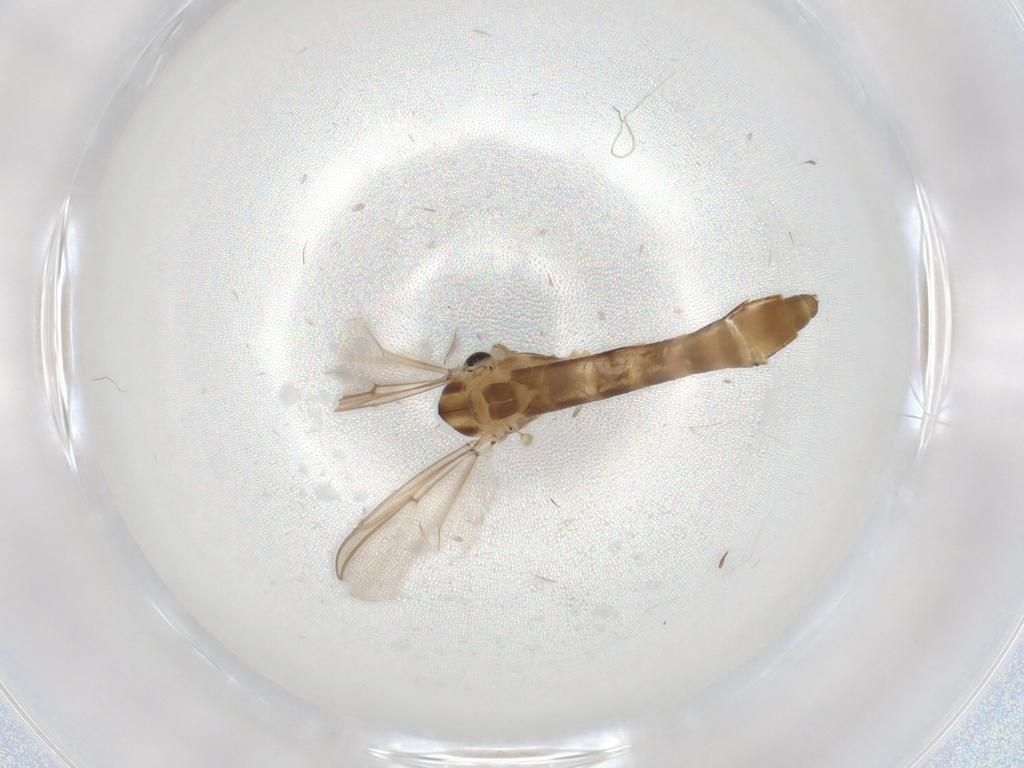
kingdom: Animalia
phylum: Arthropoda
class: Insecta
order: Diptera
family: Chironomidae
